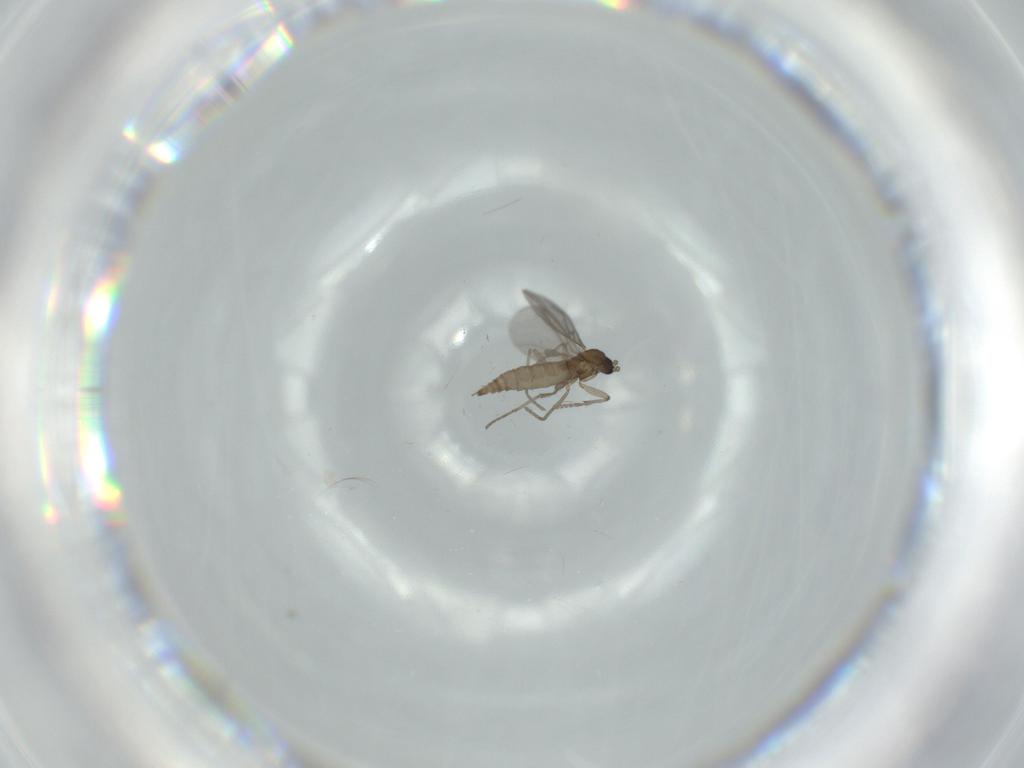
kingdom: Animalia
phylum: Arthropoda
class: Insecta
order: Diptera
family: Sciaridae
